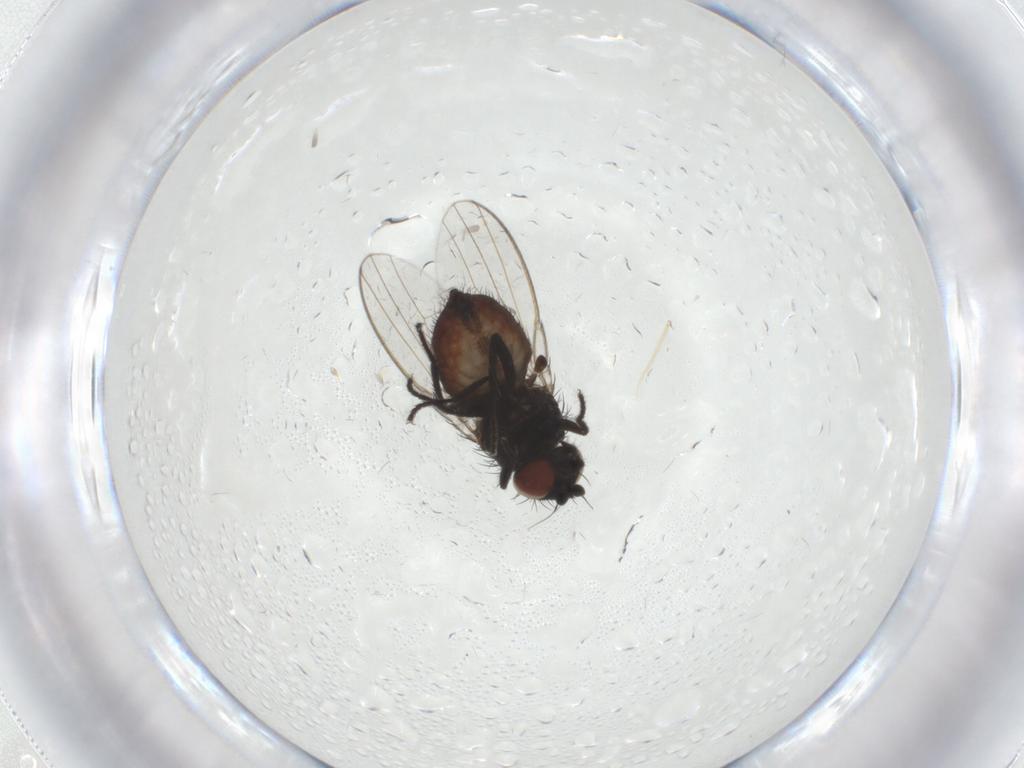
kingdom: Animalia
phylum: Arthropoda
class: Insecta
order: Diptera
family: Milichiidae
